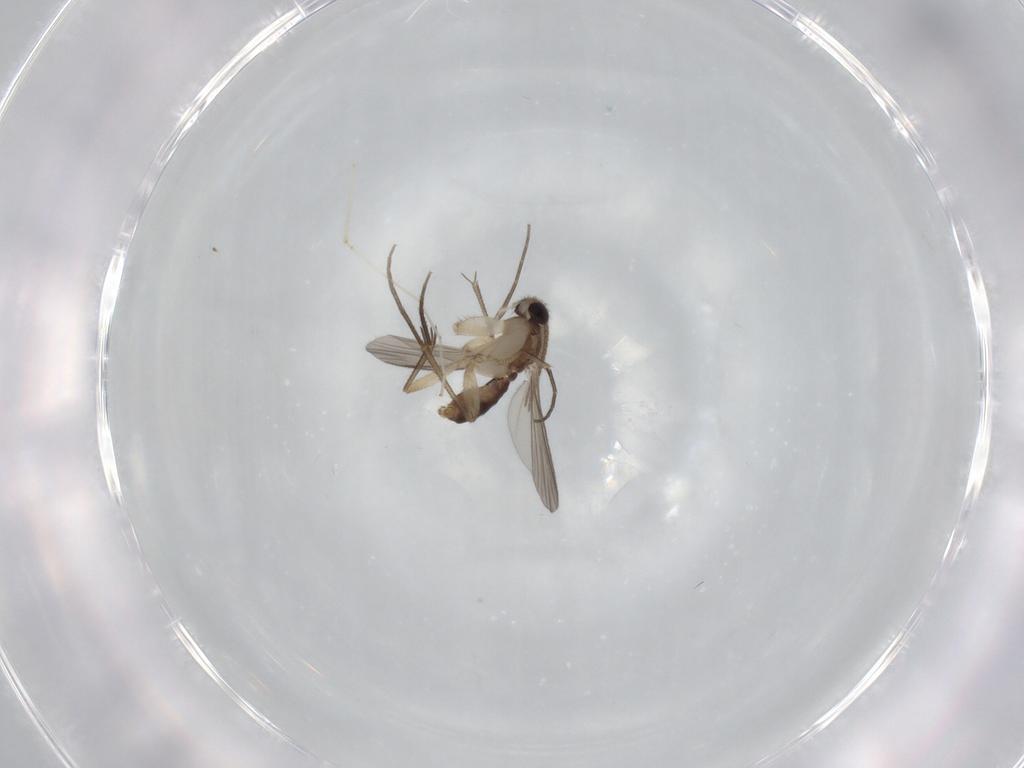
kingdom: Animalia
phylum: Arthropoda
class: Insecta
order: Diptera
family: Mycetophilidae
